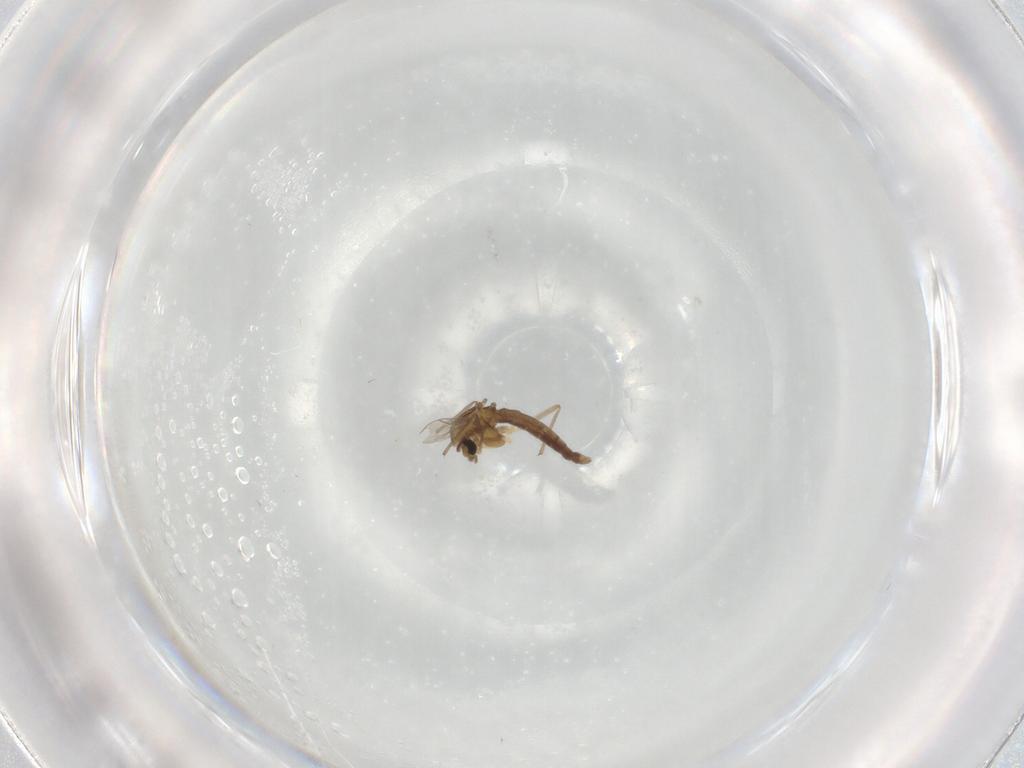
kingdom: Animalia
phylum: Arthropoda
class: Insecta
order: Diptera
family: Chironomidae
